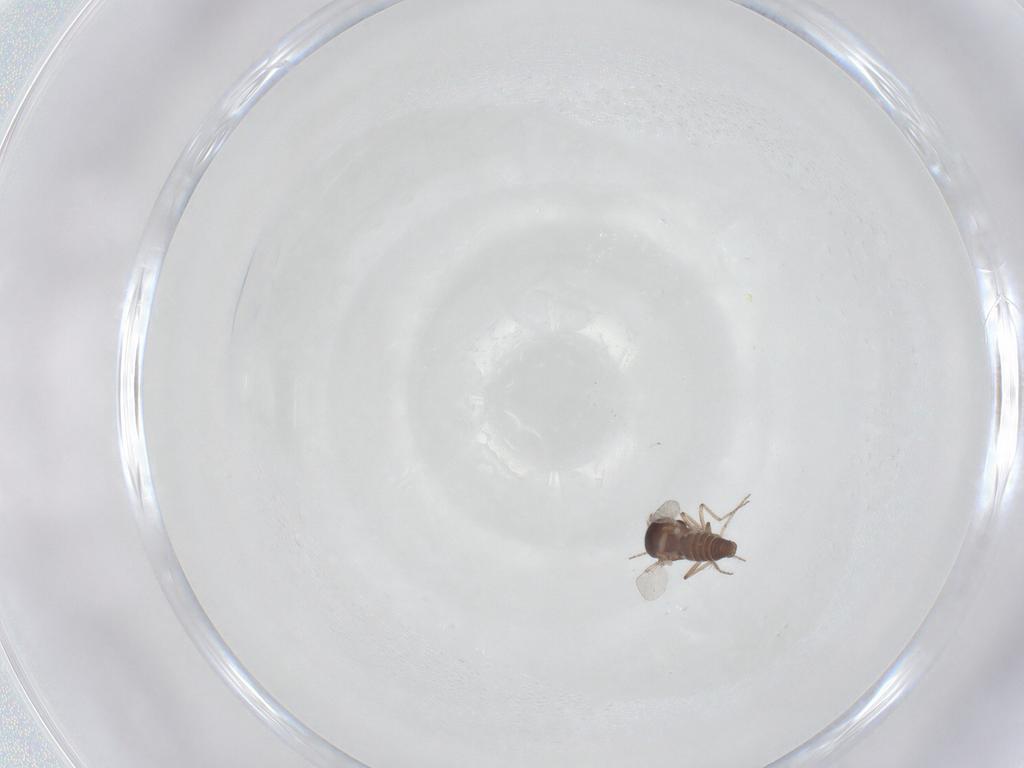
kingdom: Animalia
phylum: Arthropoda
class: Insecta
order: Diptera
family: Ceratopogonidae
